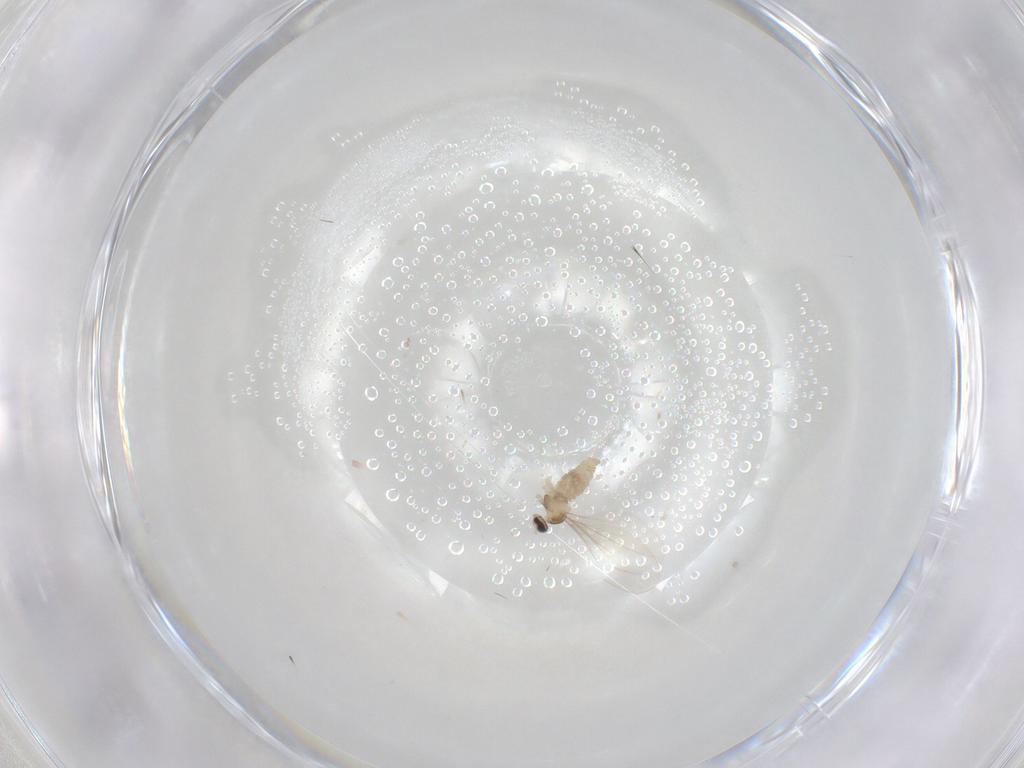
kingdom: Animalia
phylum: Arthropoda
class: Insecta
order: Diptera
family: Cecidomyiidae
